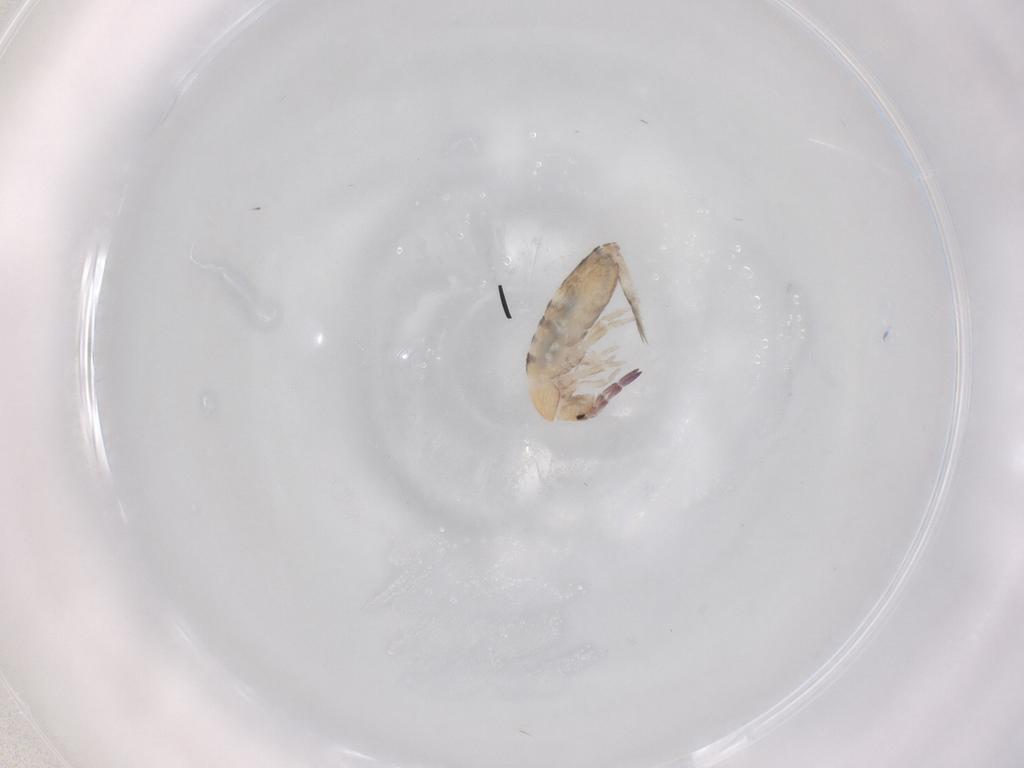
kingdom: Animalia
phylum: Arthropoda
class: Collembola
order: Entomobryomorpha
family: Entomobryidae
